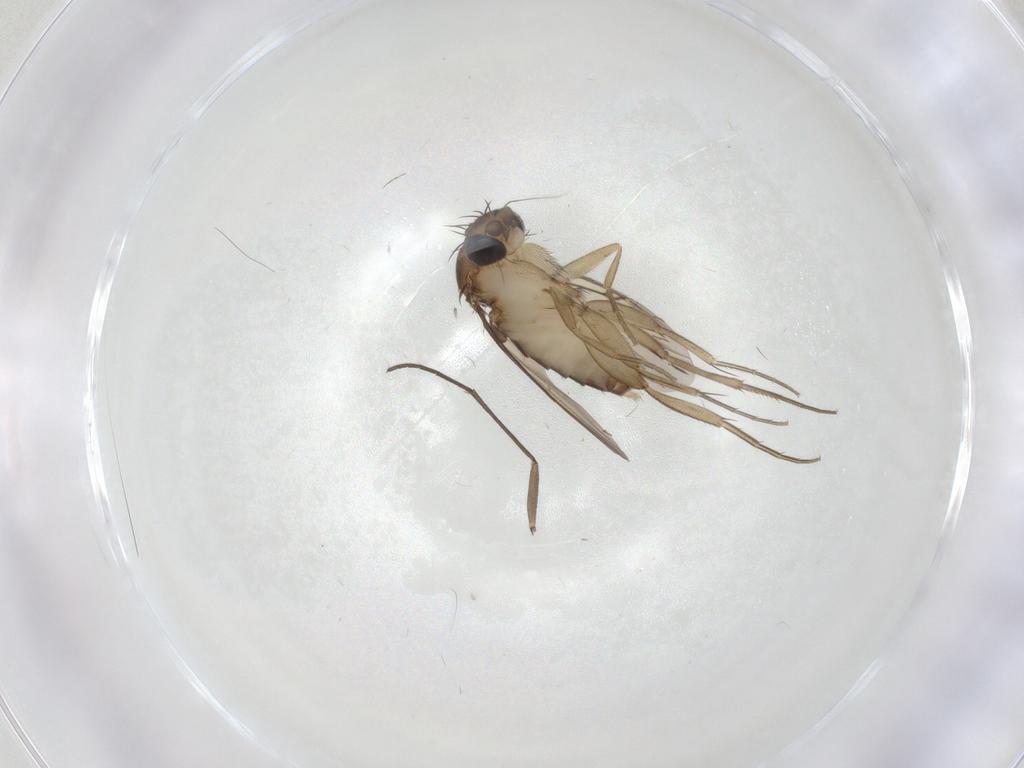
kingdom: Animalia
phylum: Arthropoda
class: Insecta
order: Diptera
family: Phoridae
